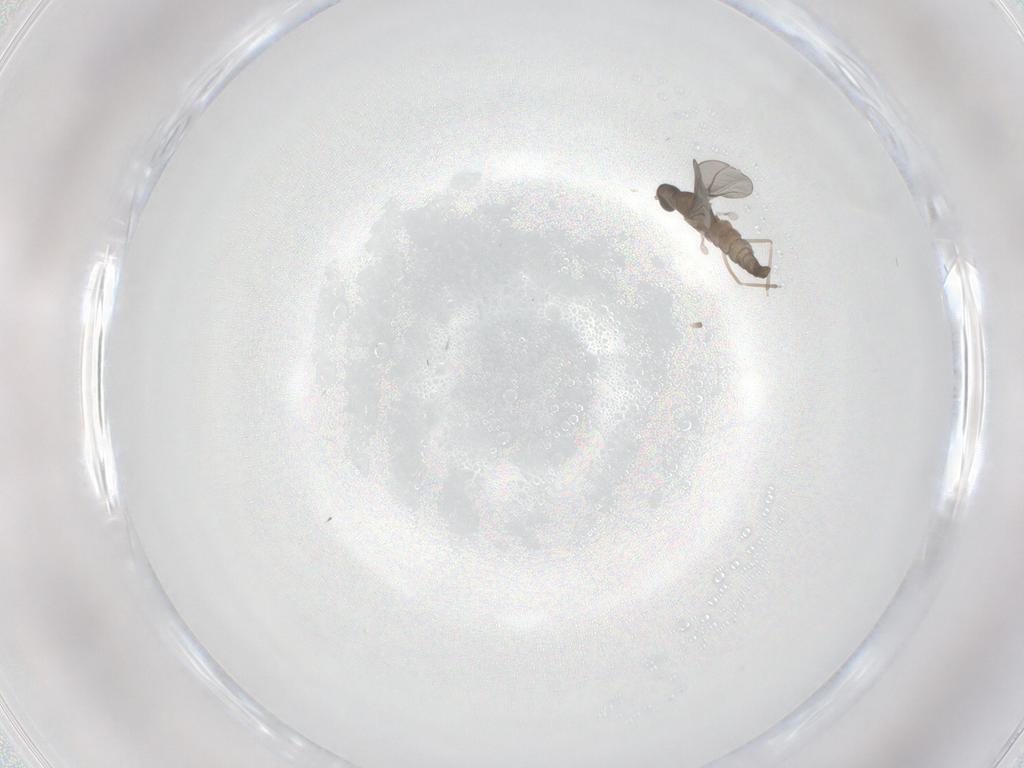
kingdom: Animalia
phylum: Arthropoda
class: Insecta
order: Diptera
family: Cecidomyiidae
